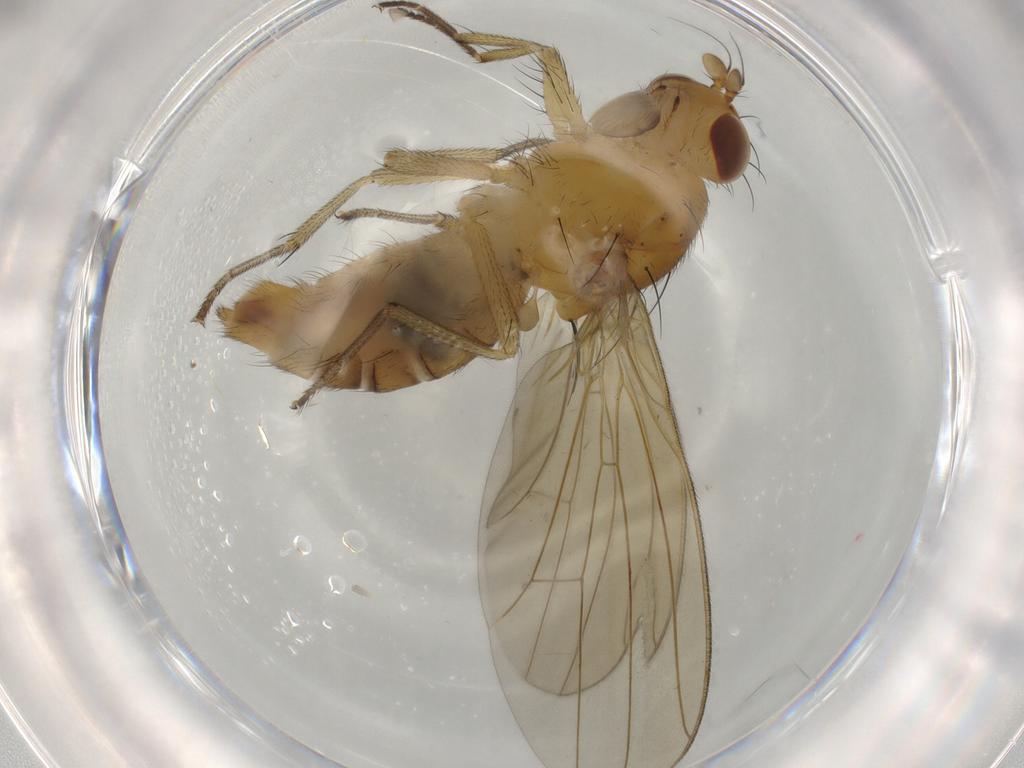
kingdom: Animalia
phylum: Arthropoda
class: Insecta
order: Diptera
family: Sciaridae
